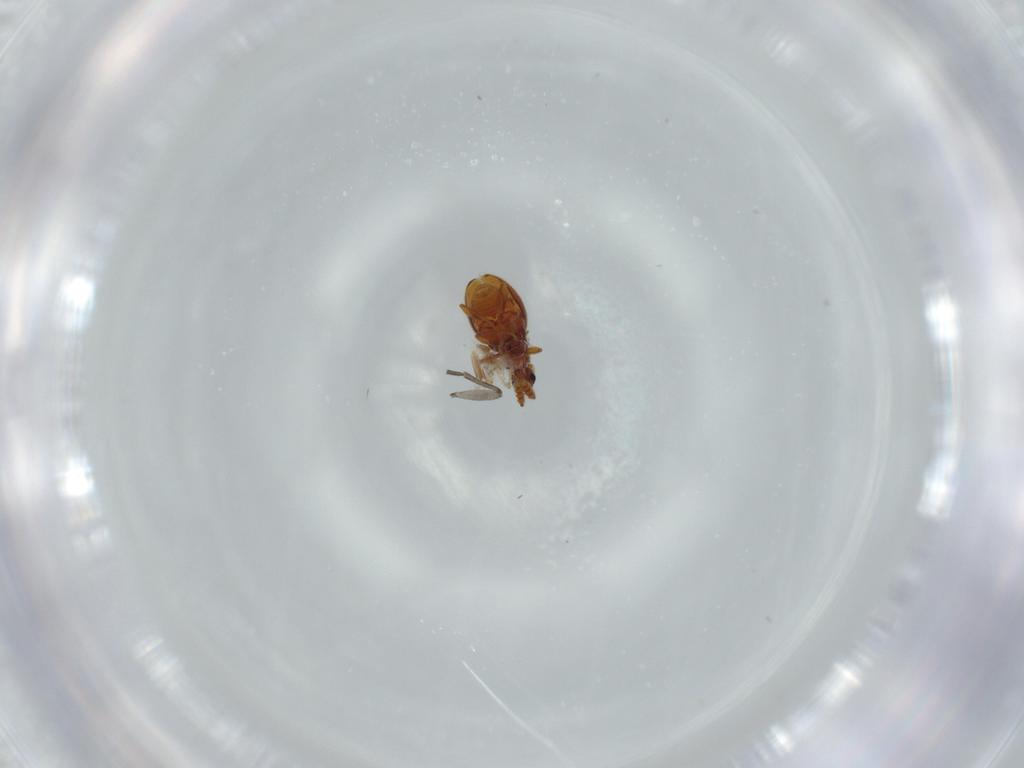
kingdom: Animalia
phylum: Arthropoda
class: Insecta
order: Coleoptera
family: Staphylinidae
